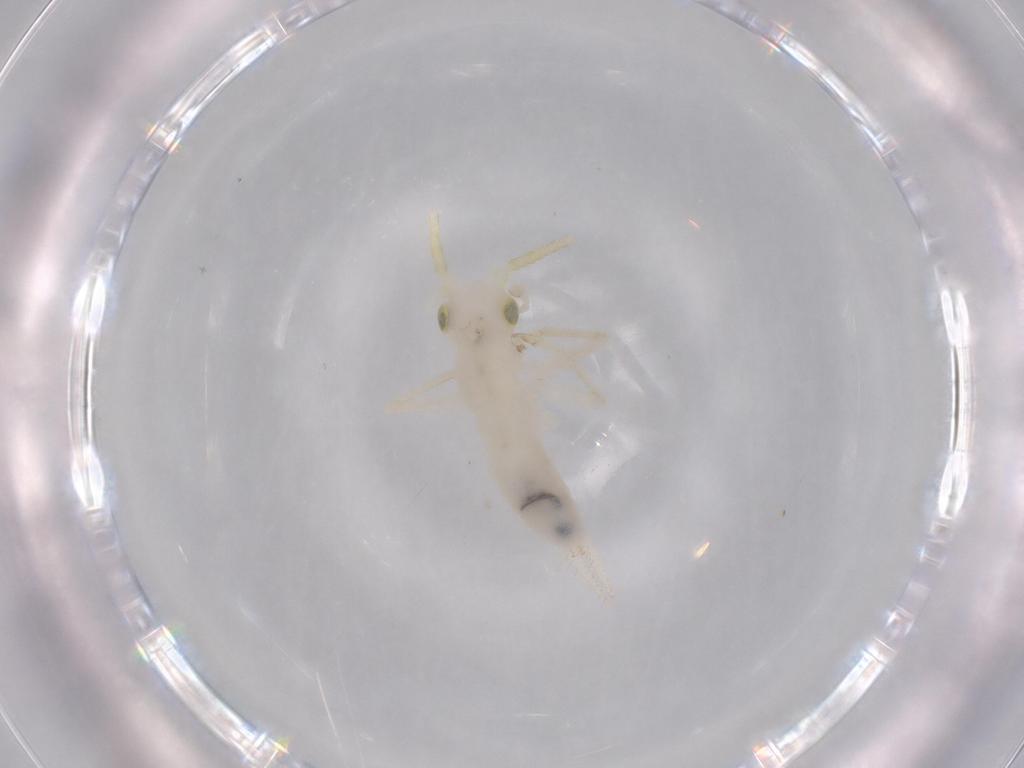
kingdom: Animalia
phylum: Arthropoda
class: Insecta
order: Orthoptera
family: Trigonidiidae
